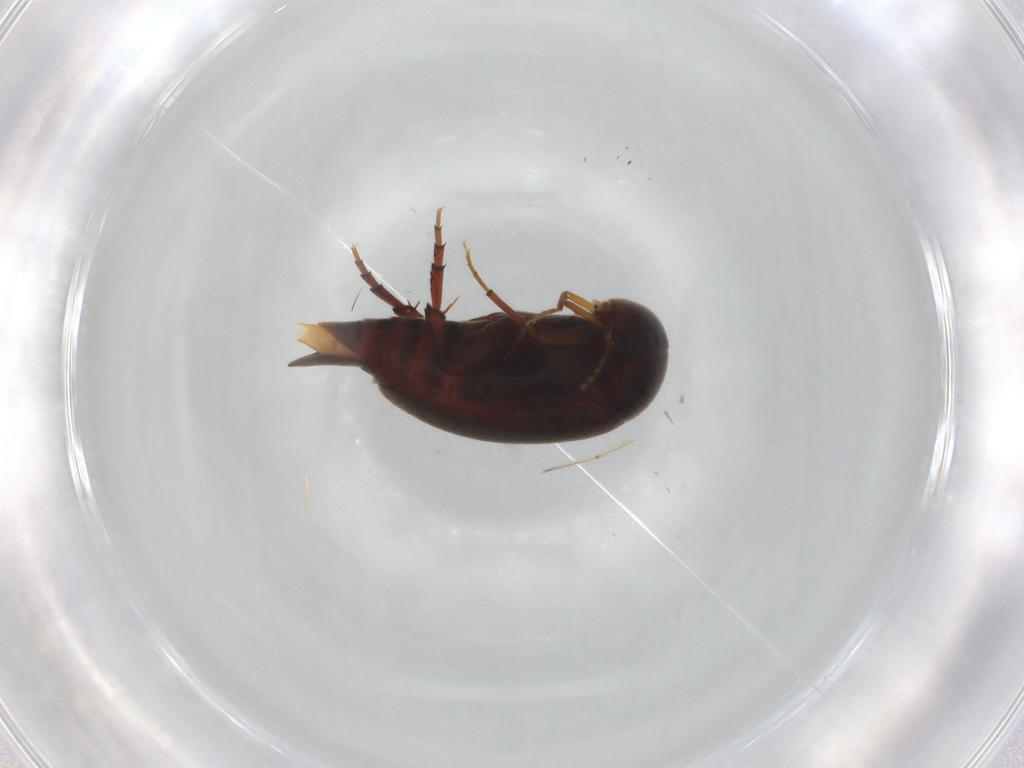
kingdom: Animalia
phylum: Arthropoda
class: Insecta
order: Coleoptera
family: Mordellidae
